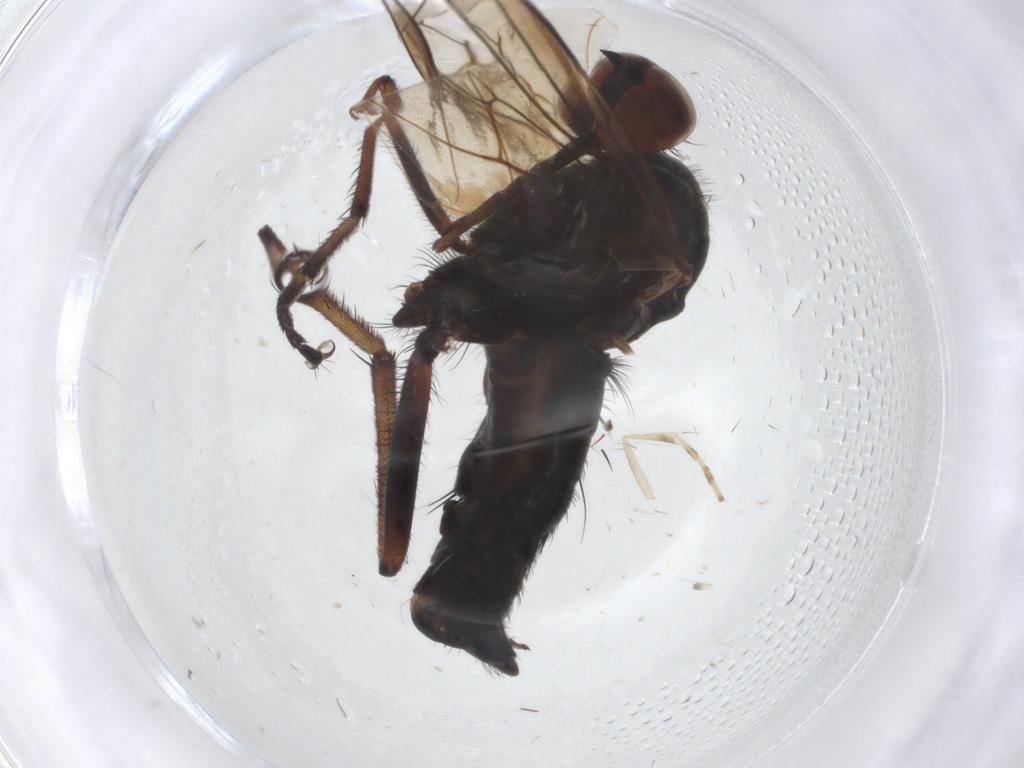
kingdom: Animalia
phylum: Arthropoda
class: Insecta
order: Diptera
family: Empididae
